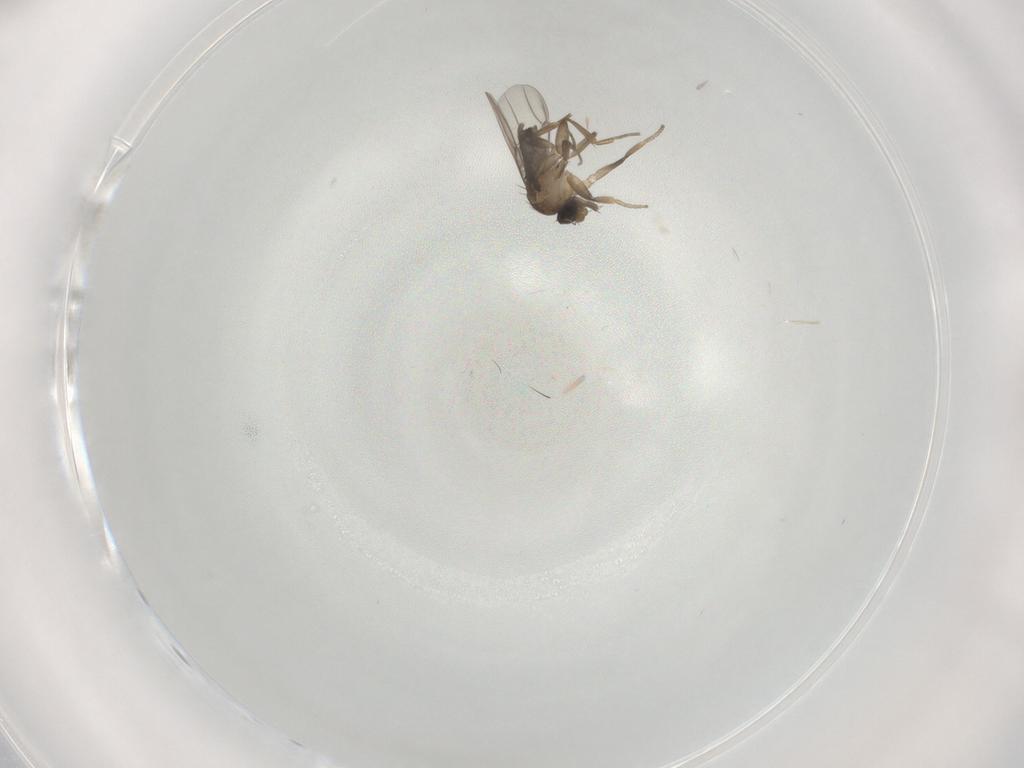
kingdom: Animalia
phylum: Arthropoda
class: Insecta
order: Diptera
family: Phoridae
